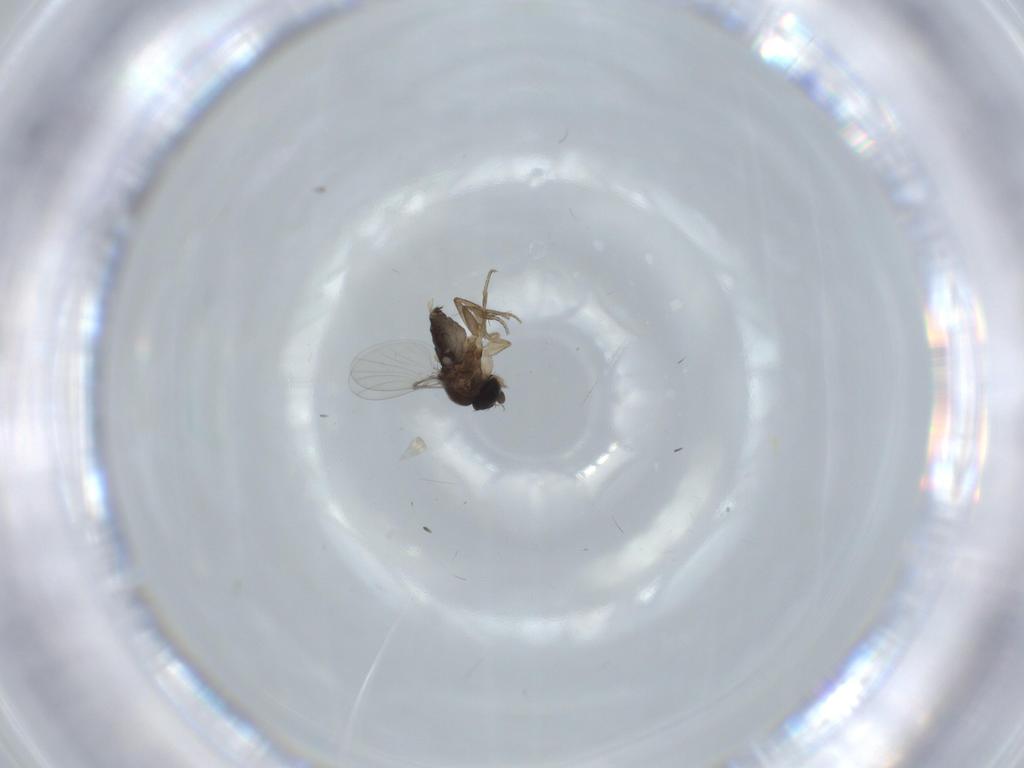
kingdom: Animalia
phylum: Arthropoda
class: Insecta
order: Diptera
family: Phoridae
